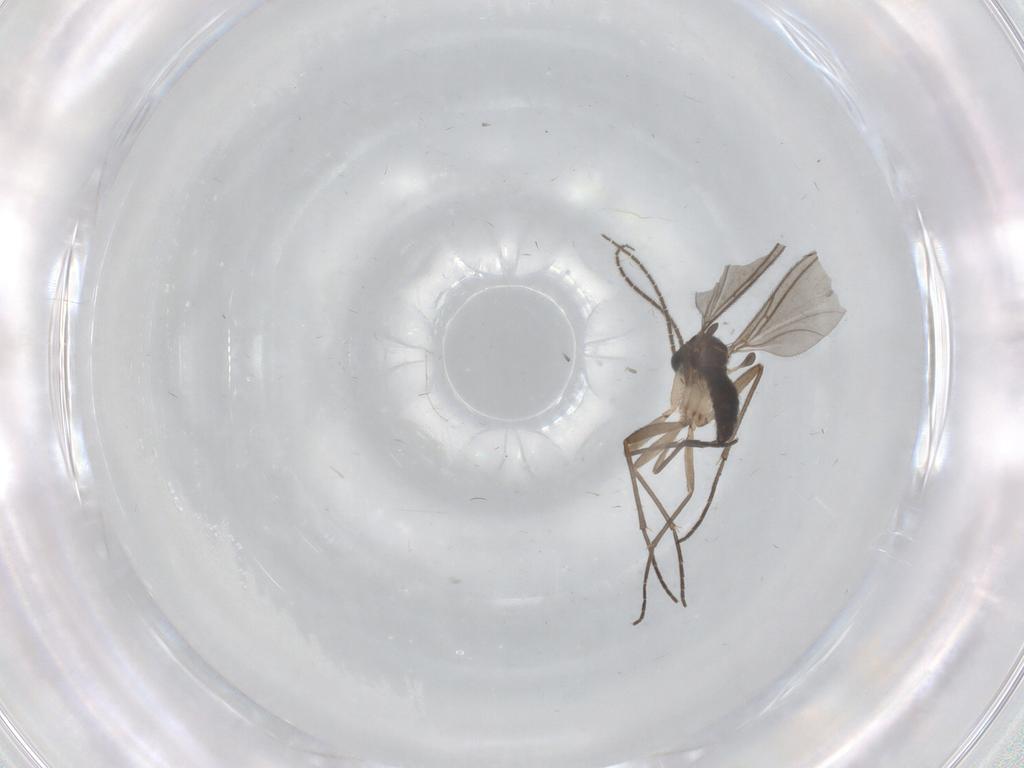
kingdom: Animalia
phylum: Arthropoda
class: Insecta
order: Diptera
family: Sciaridae
